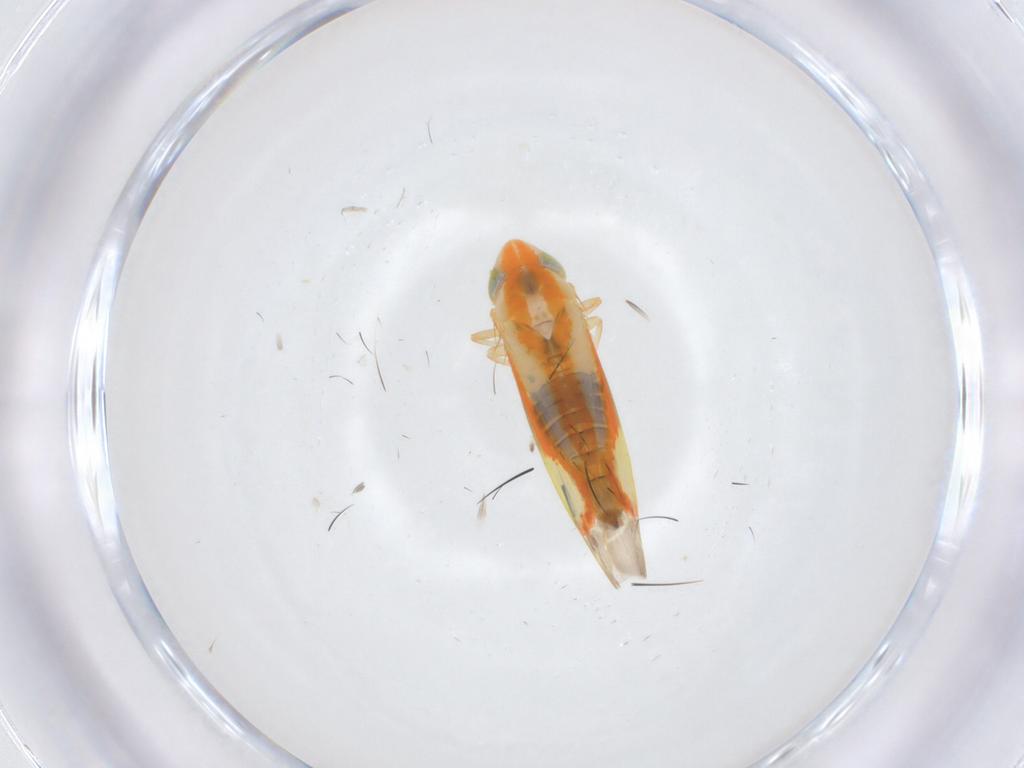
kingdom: Animalia
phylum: Arthropoda
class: Insecta
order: Hemiptera
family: Cicadellidae
